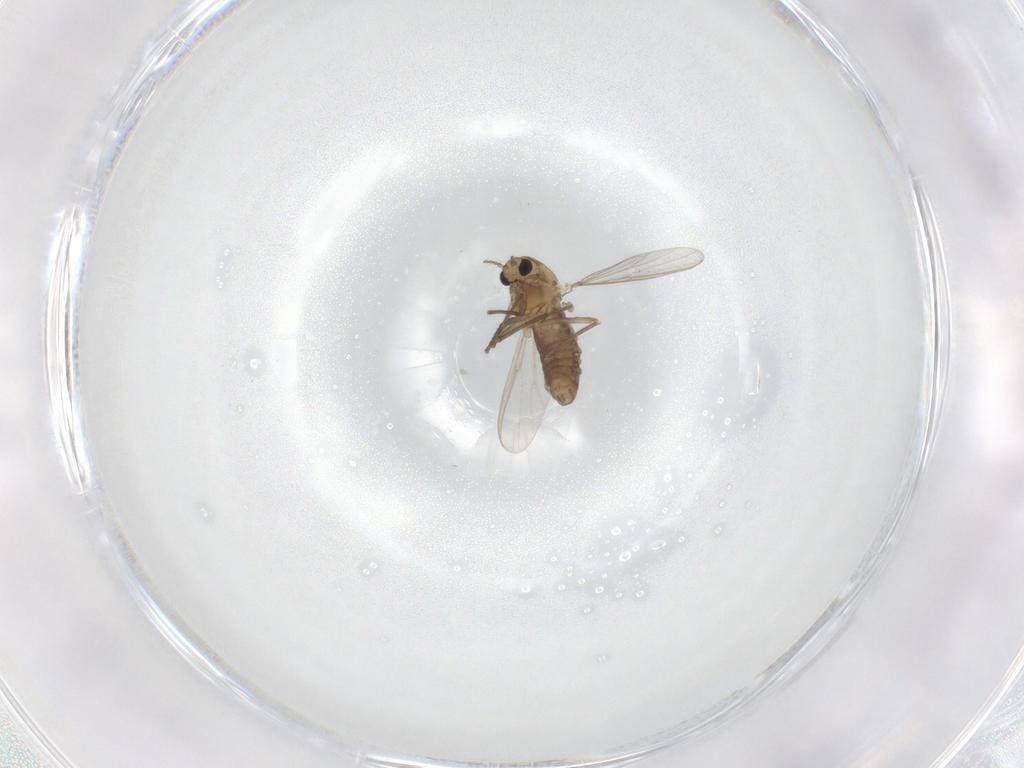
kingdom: Animalia
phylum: Arthropoda
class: Insecta
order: Diptera
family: Chironomidae
